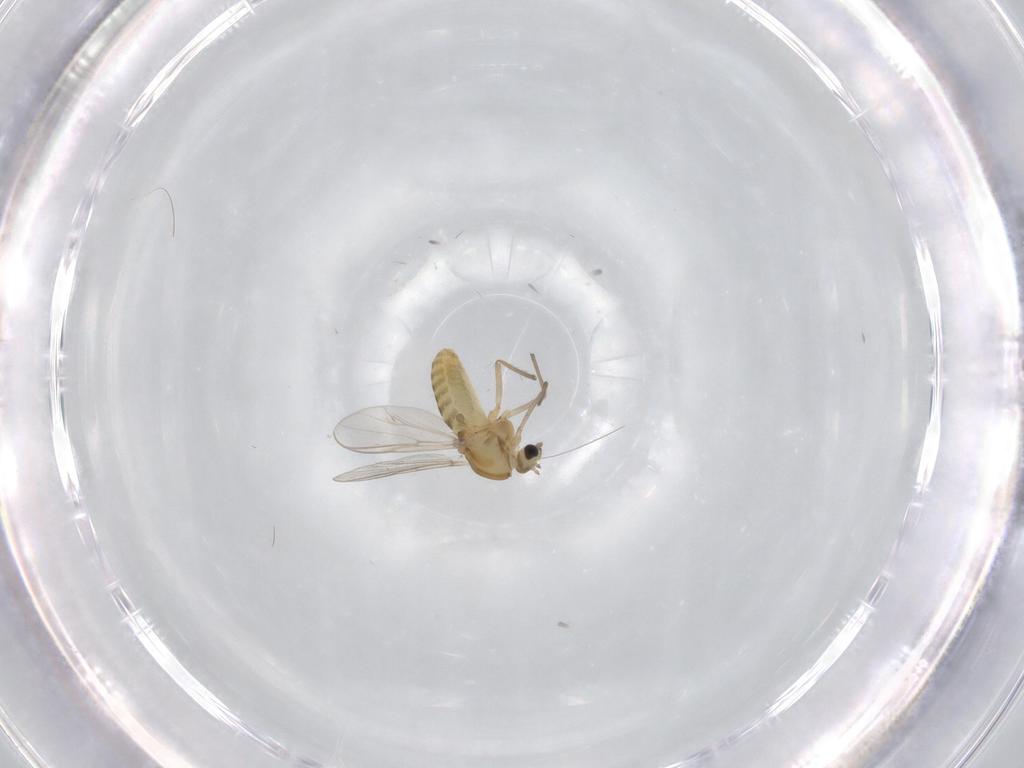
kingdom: Animalia
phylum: Arthropoda
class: Insecta
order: Diptera
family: Chironomidae
